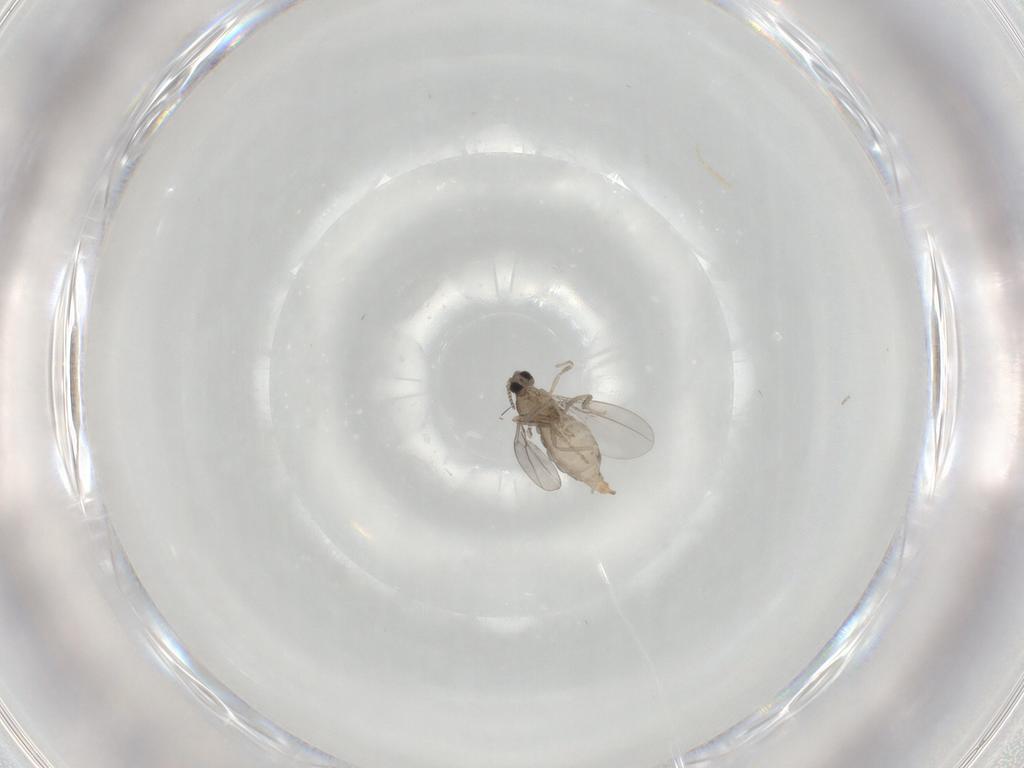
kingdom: Animalia
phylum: Arthropoda
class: Insecta
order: Diptera
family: Cecidomyiidae
